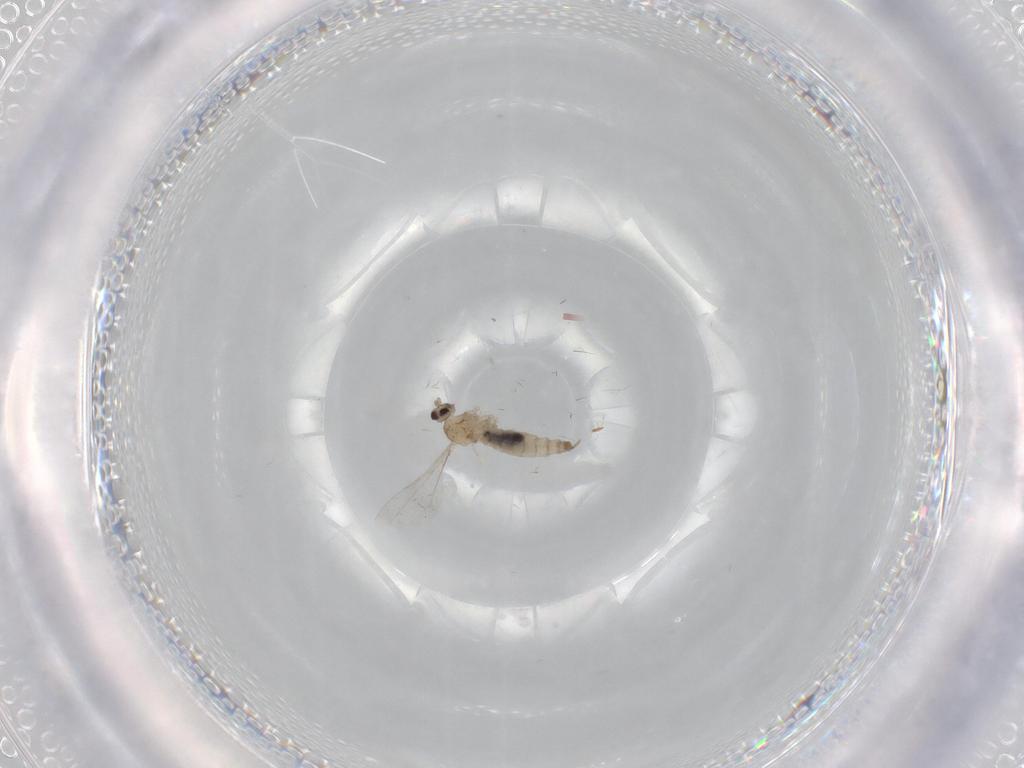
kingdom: Animalia
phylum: Arthropoda
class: Insecta
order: Diptera
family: Cecidomyiidae
